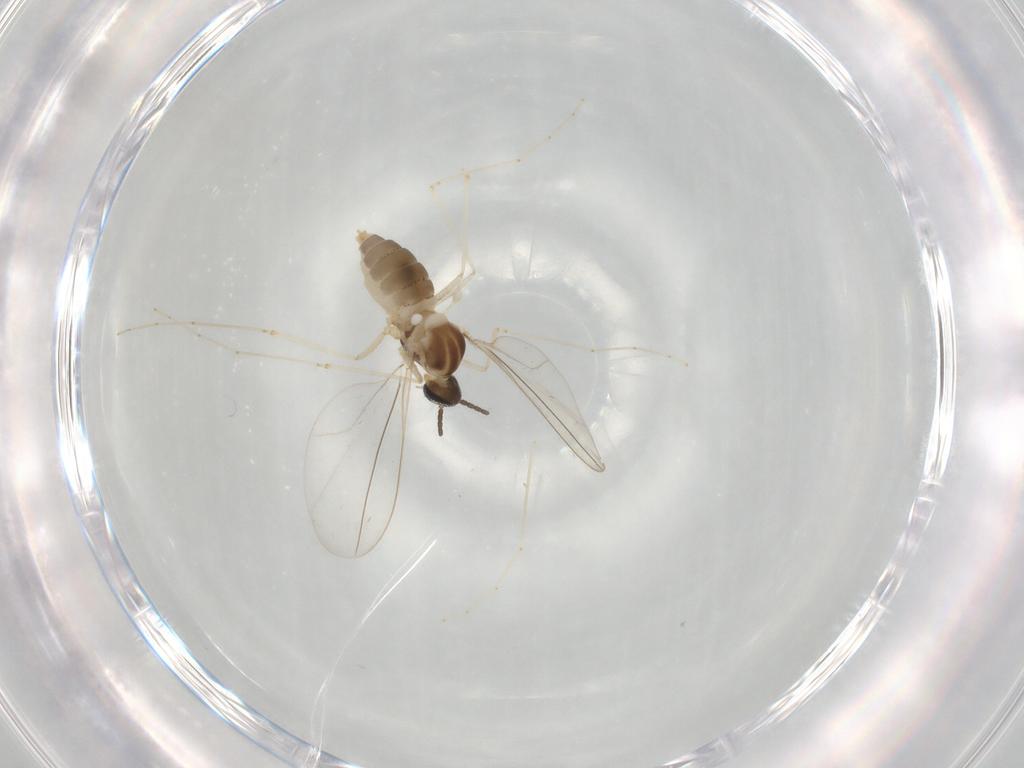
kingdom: Animalia
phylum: Arthropoda
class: Insecta
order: Diptera
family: Cecidomyiidae
